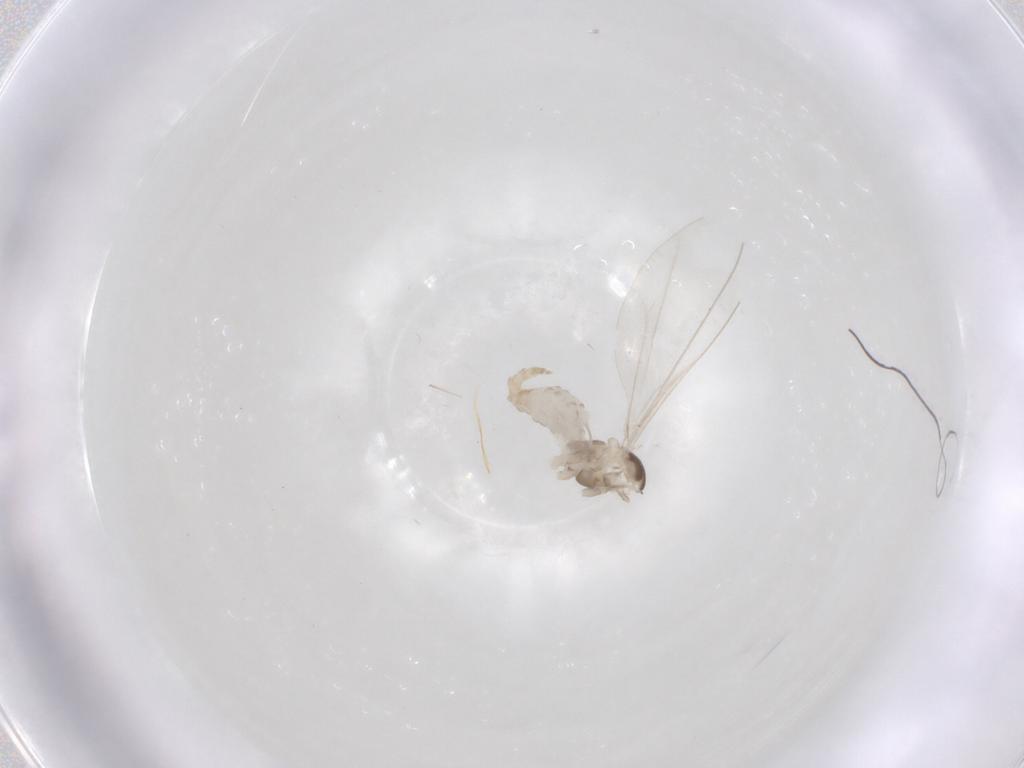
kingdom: Animalia
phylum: Arthropoda
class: Insecta
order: Diptera
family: Cecidomyiidae
